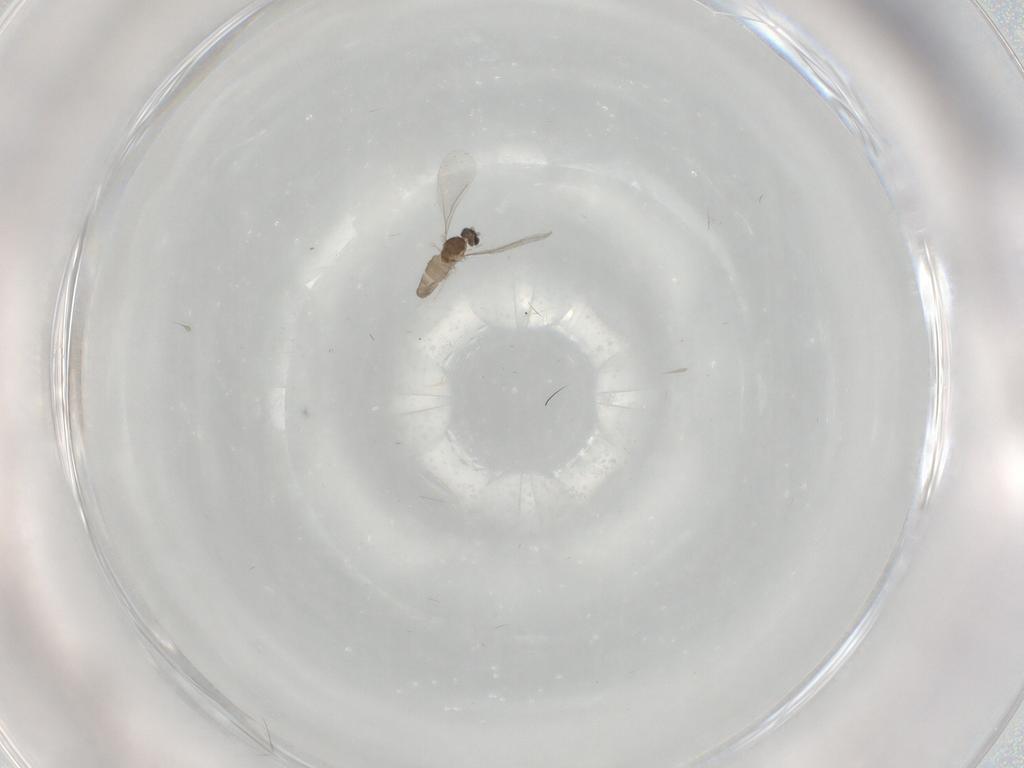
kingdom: Animalia
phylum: Arthropoda
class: Insecta
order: Diptera
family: Cecidomyiidae
